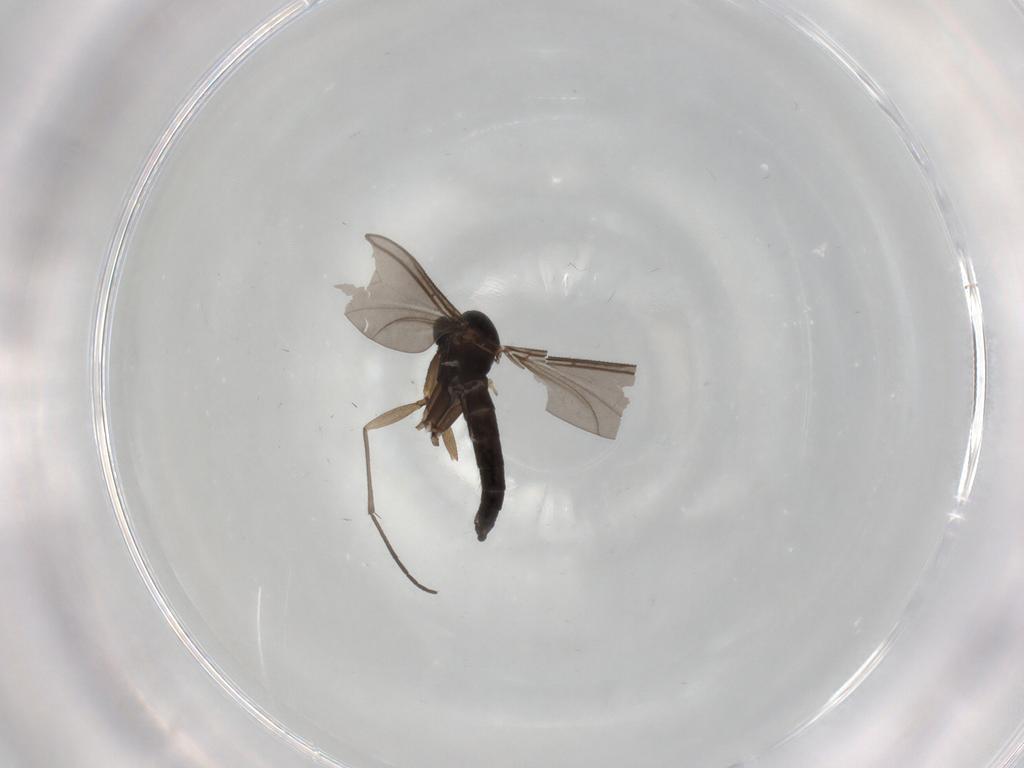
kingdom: Animalia
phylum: Arthropoda
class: Insecta
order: Diptera
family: Sciaridae
